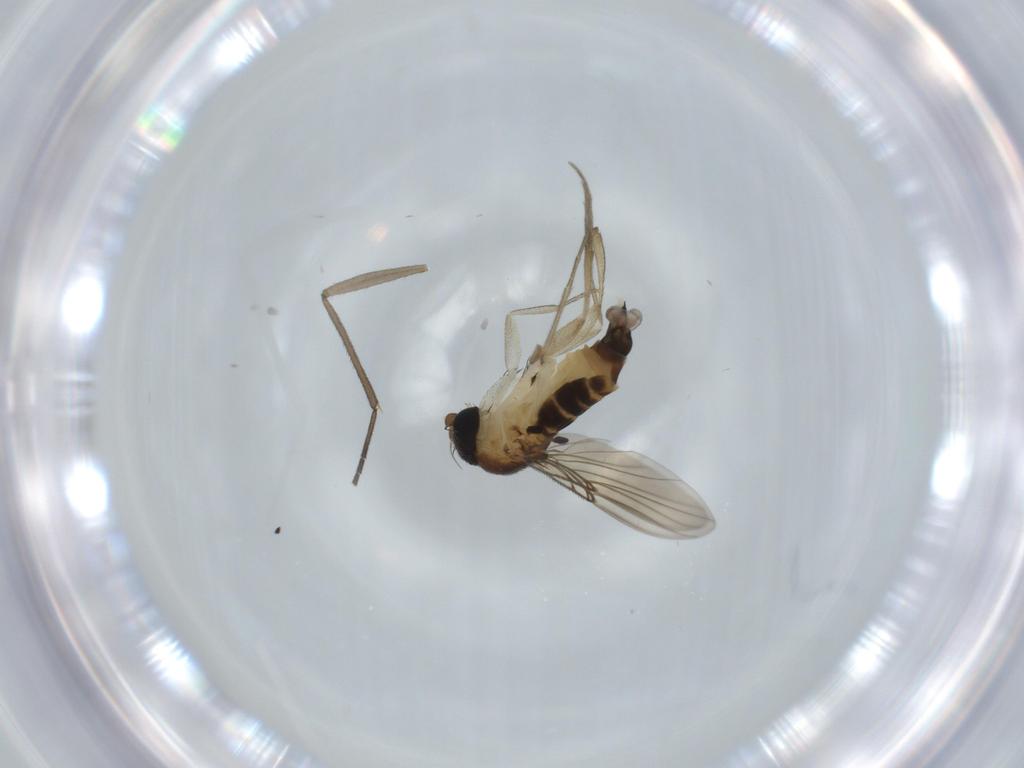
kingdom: Animalia
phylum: Arthropoda
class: Insecta
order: Diptera
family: Phoridae
